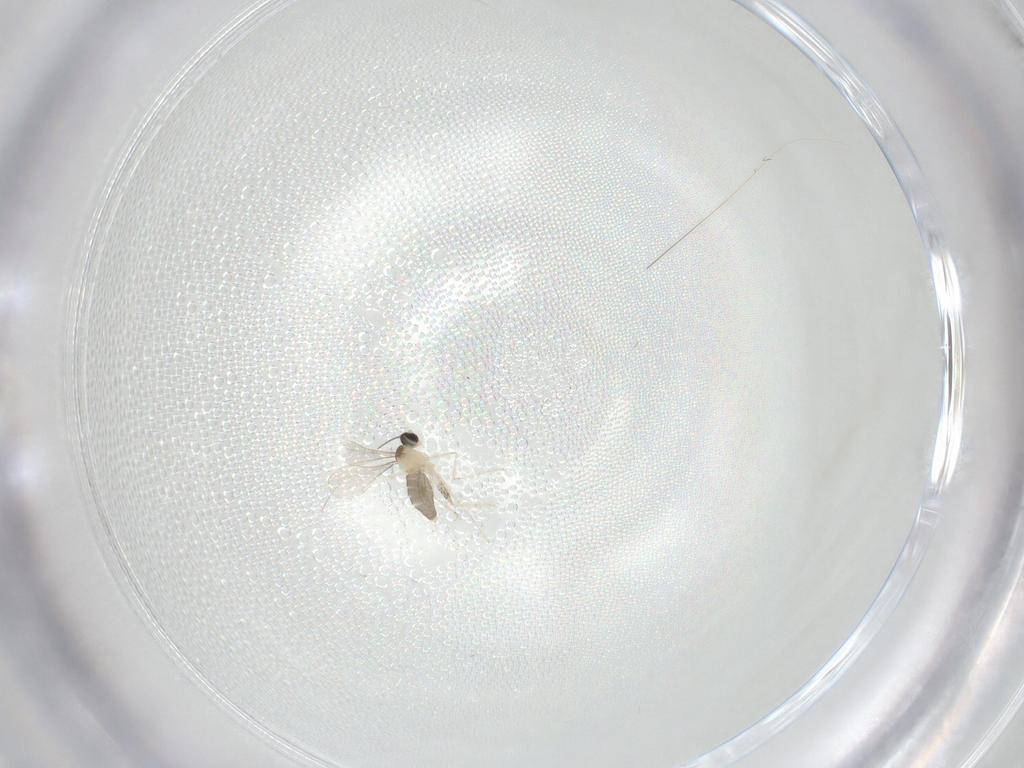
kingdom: Animalia
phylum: Arthropoda
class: Insecta
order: Diptera
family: Cecidomyiidae
